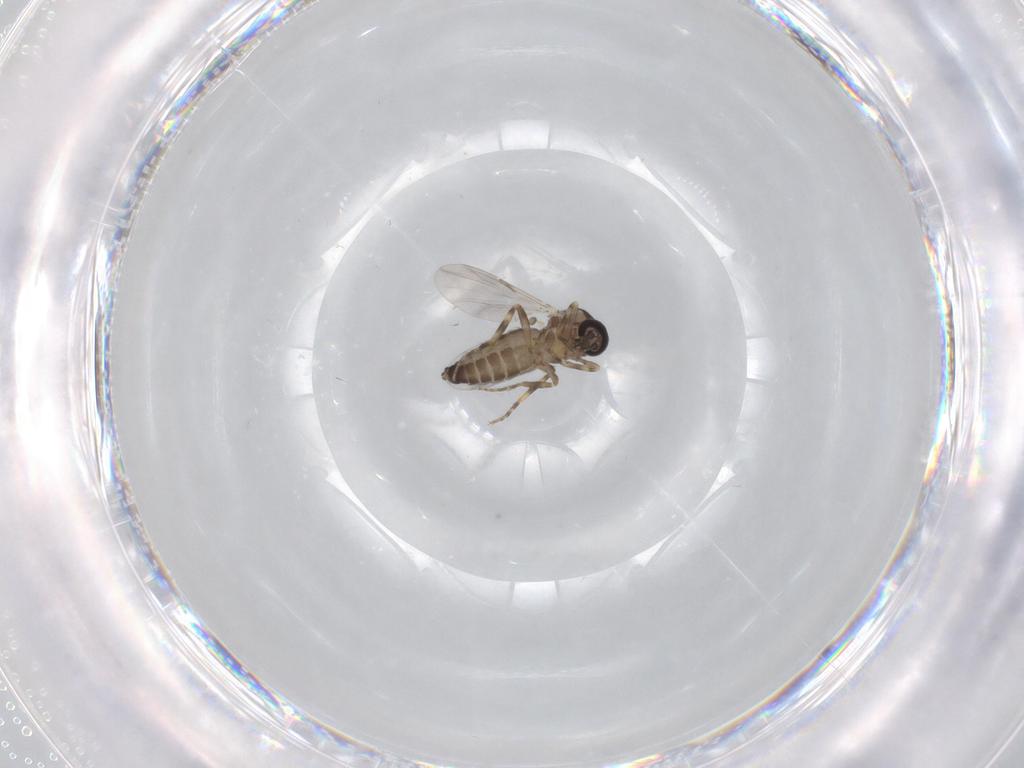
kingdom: Animalia
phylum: Arthropoda
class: Insecta
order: Diptera
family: Ceratopogonidae
